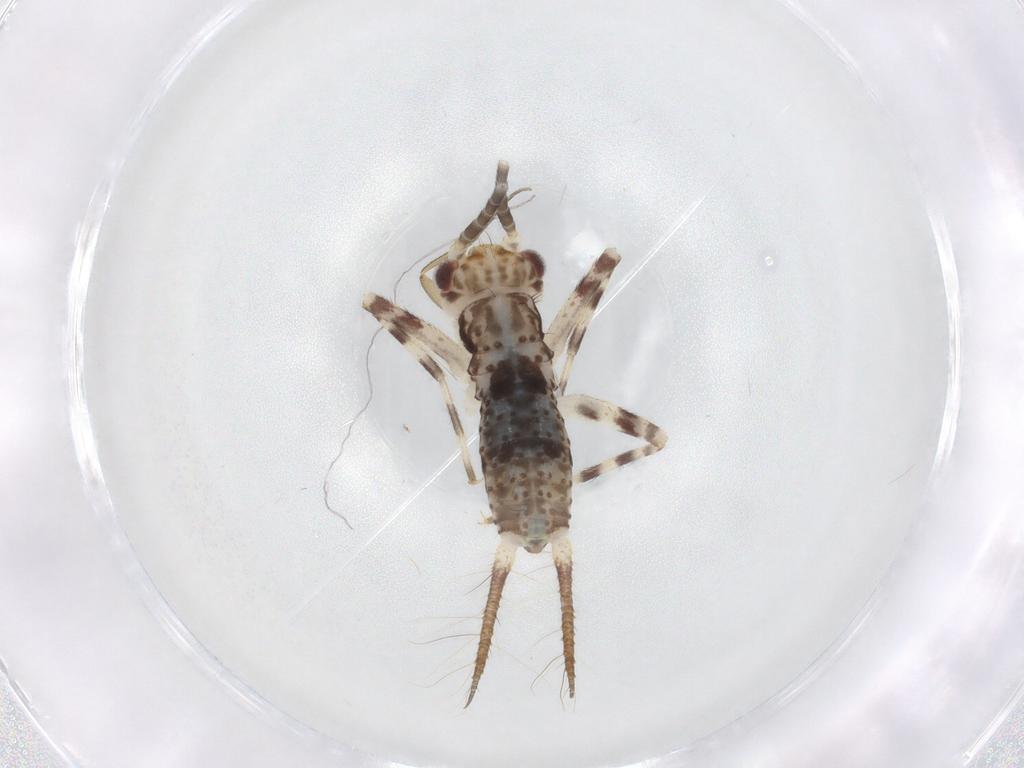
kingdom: Animalia
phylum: Arthropoda
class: Insecta
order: Orthoptera
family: Gryllidae
